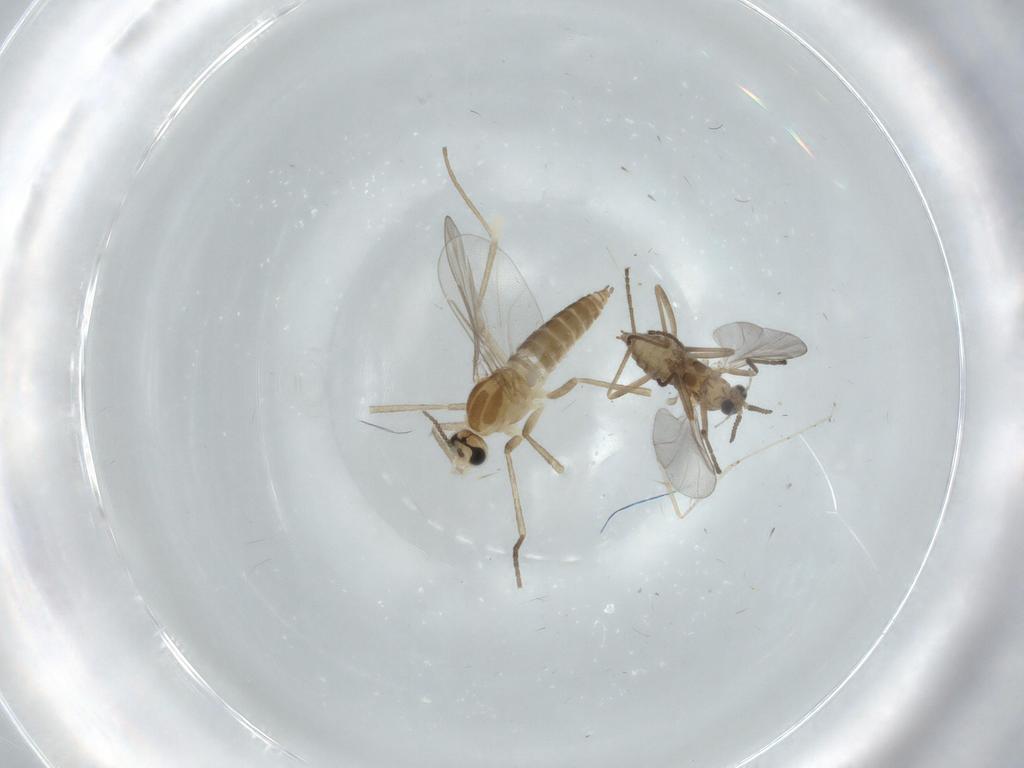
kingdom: Animalia
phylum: Arthropoda
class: Insecta
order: Diptera
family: Cecidomyiidae
